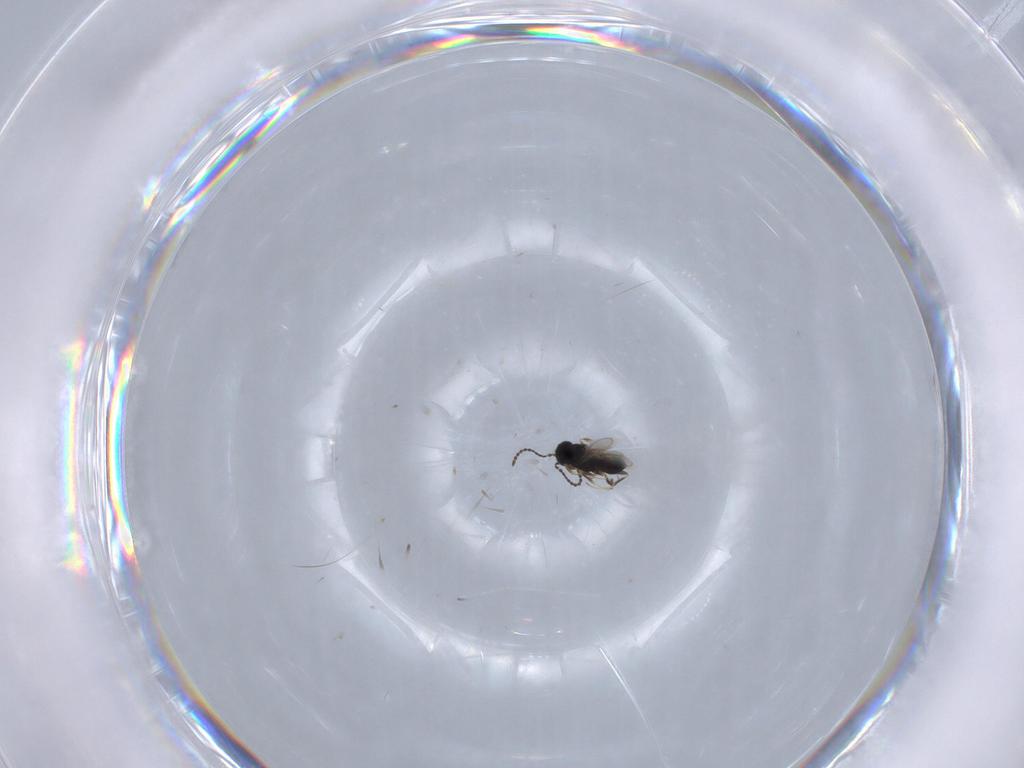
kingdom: Animalia
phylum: Arthropoda
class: Insecta
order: Hymenoptera
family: Scelionidae
